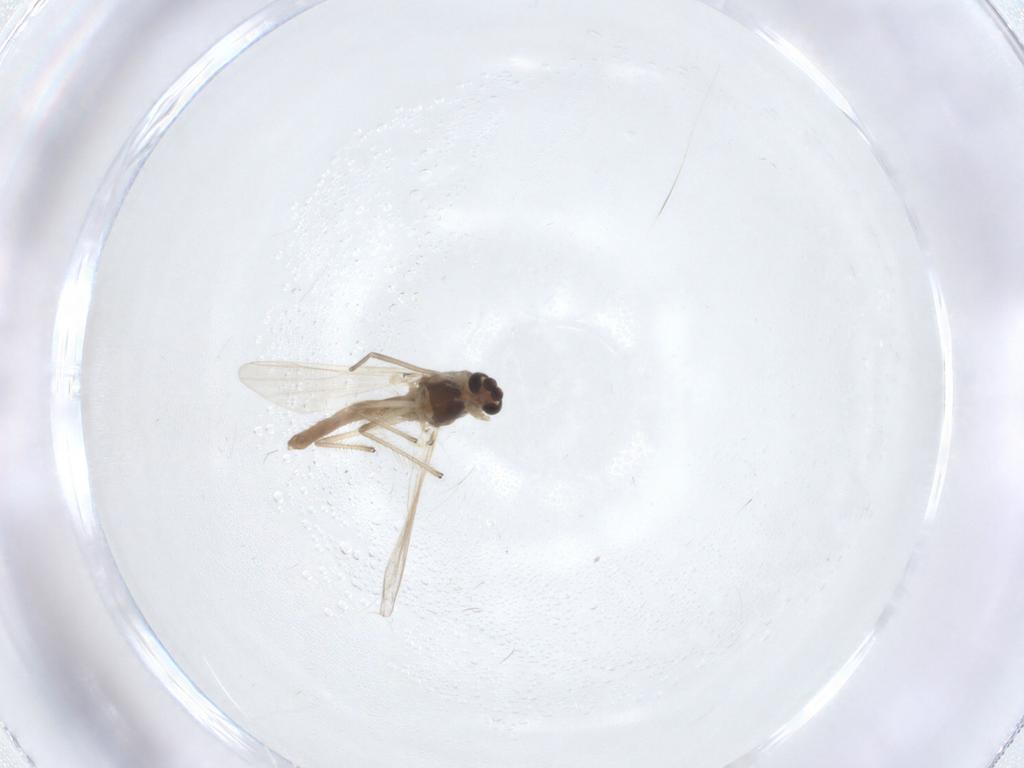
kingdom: Animalia
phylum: Arthropoda
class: Insecta
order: Diptera
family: Chironomidae
